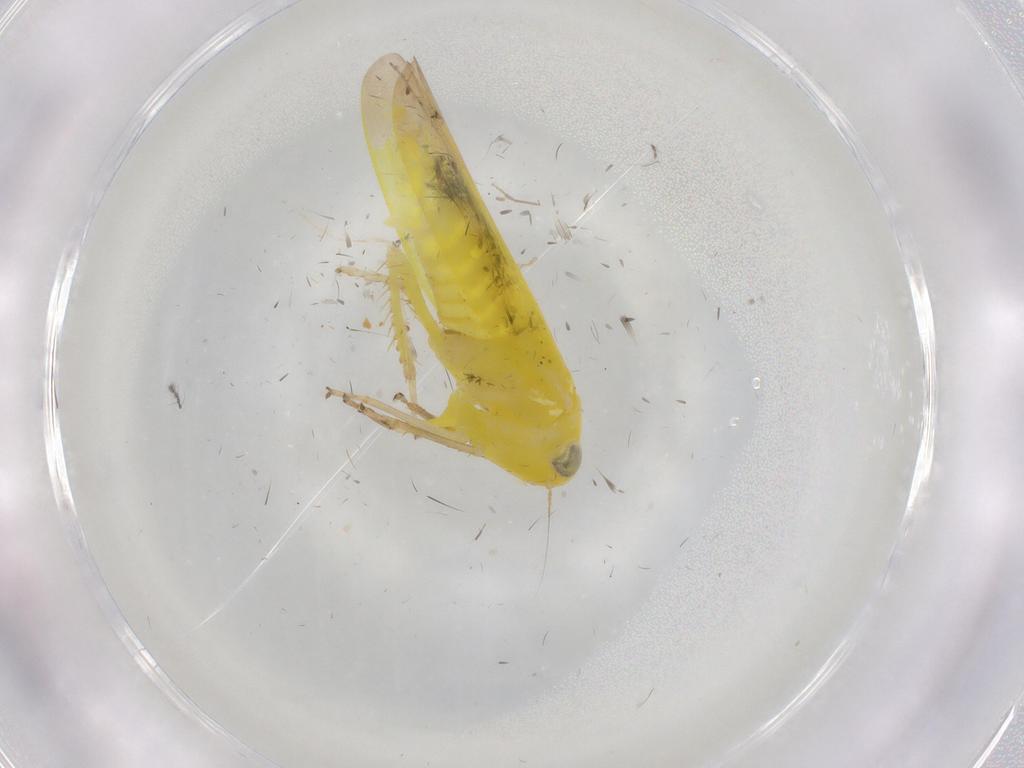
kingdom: Animalia
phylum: Arthropoda
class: Insecta
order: Hemiptera
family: Cicadellidae
